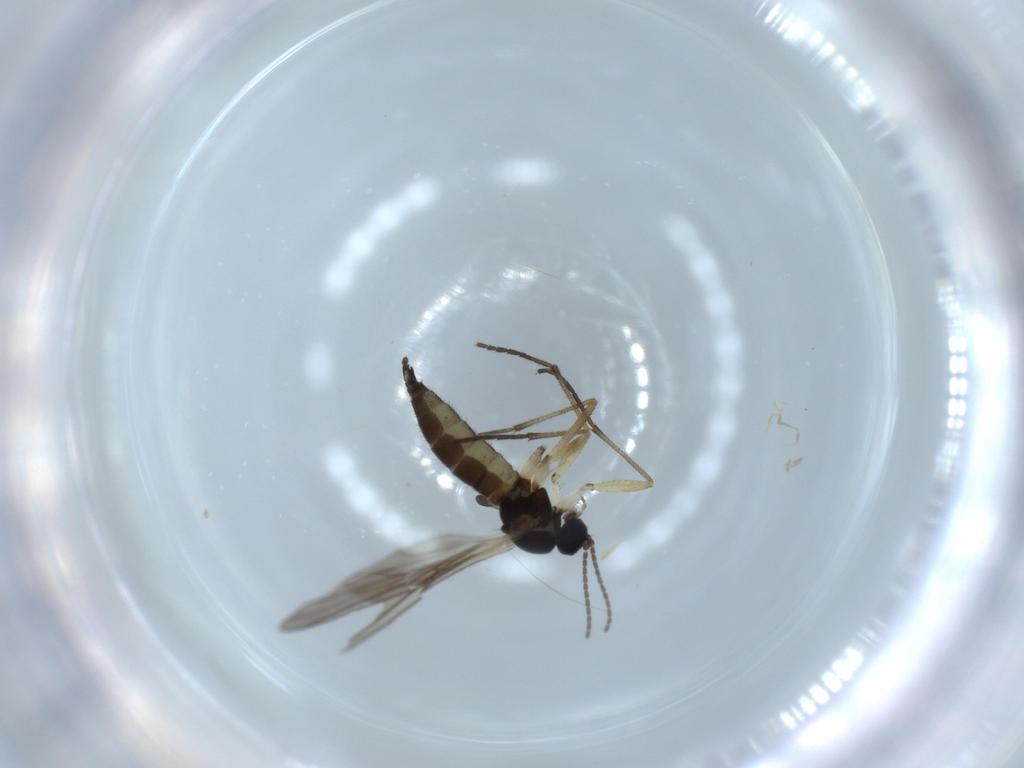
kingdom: Animalia
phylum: Arthropoda
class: Insecta
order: Diptera
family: Sciaridae
